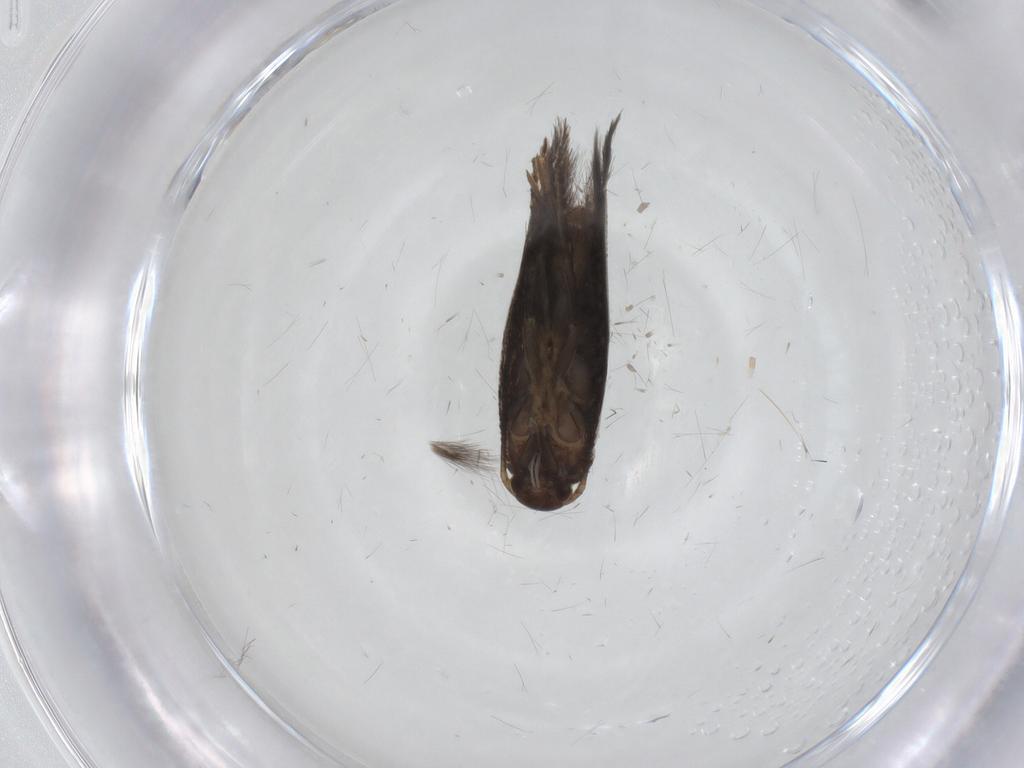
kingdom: Animalia
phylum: Arthropoda
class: Insecta
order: Lepidoptera
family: Elachistidae
